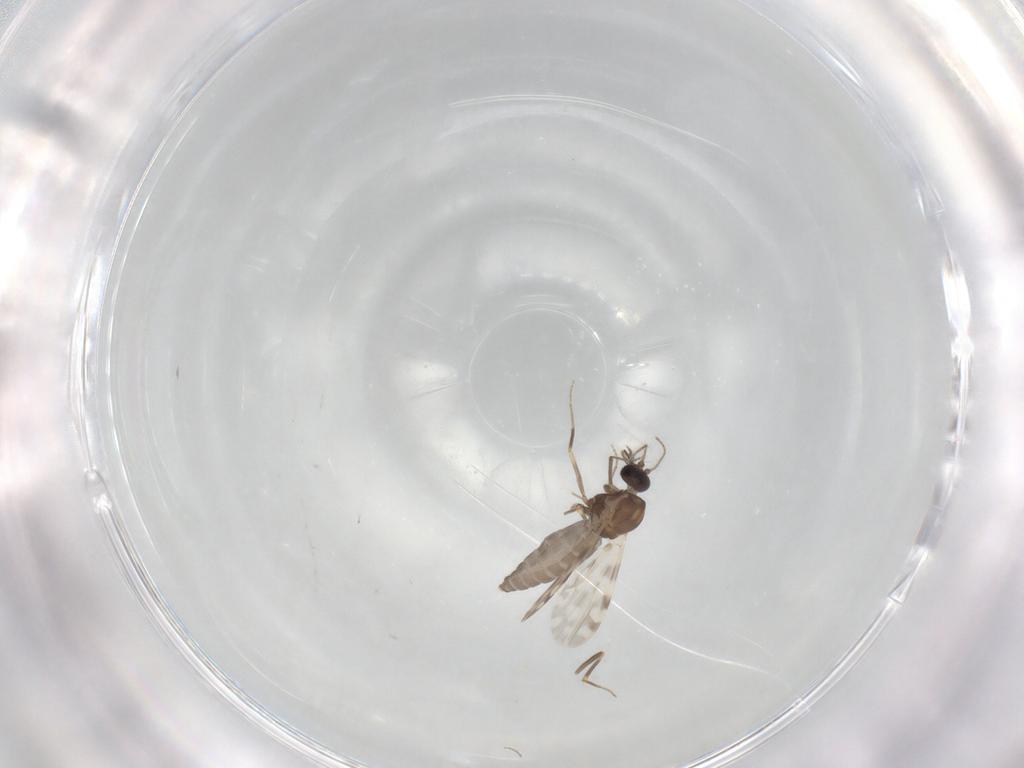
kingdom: Animalia
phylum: Arthropoda
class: Insecta
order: Diptera
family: Ceratopogonidae
